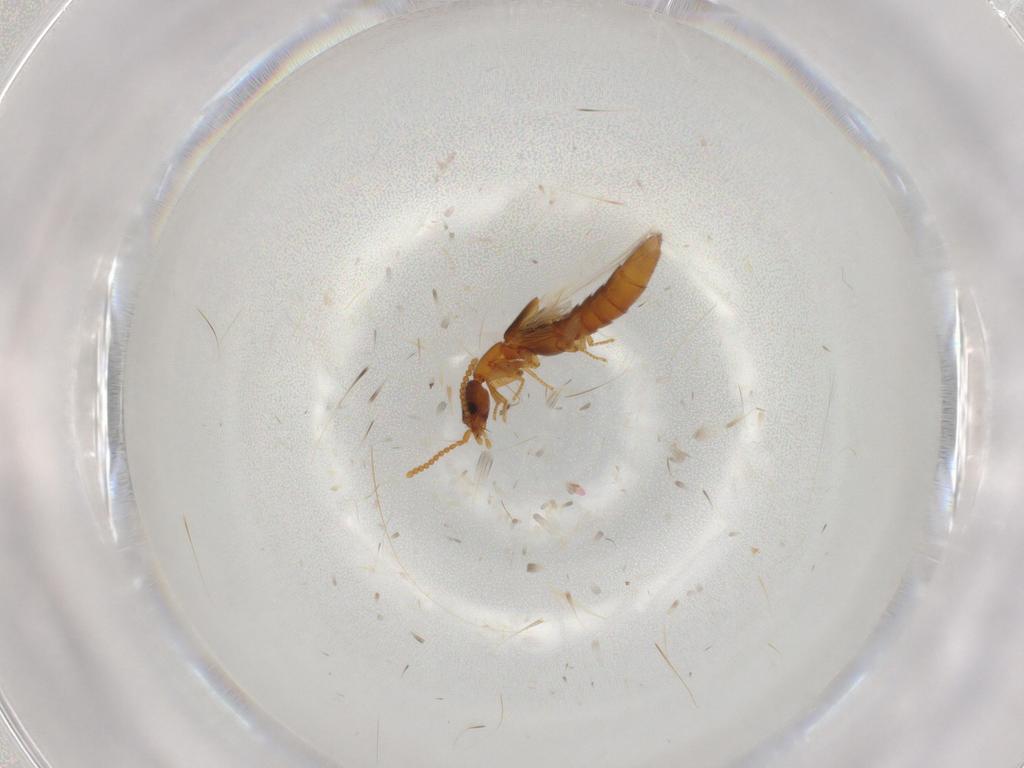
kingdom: Animalia
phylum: Arthropoda
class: Insecta
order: Coleoptera
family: Staphylinidae
